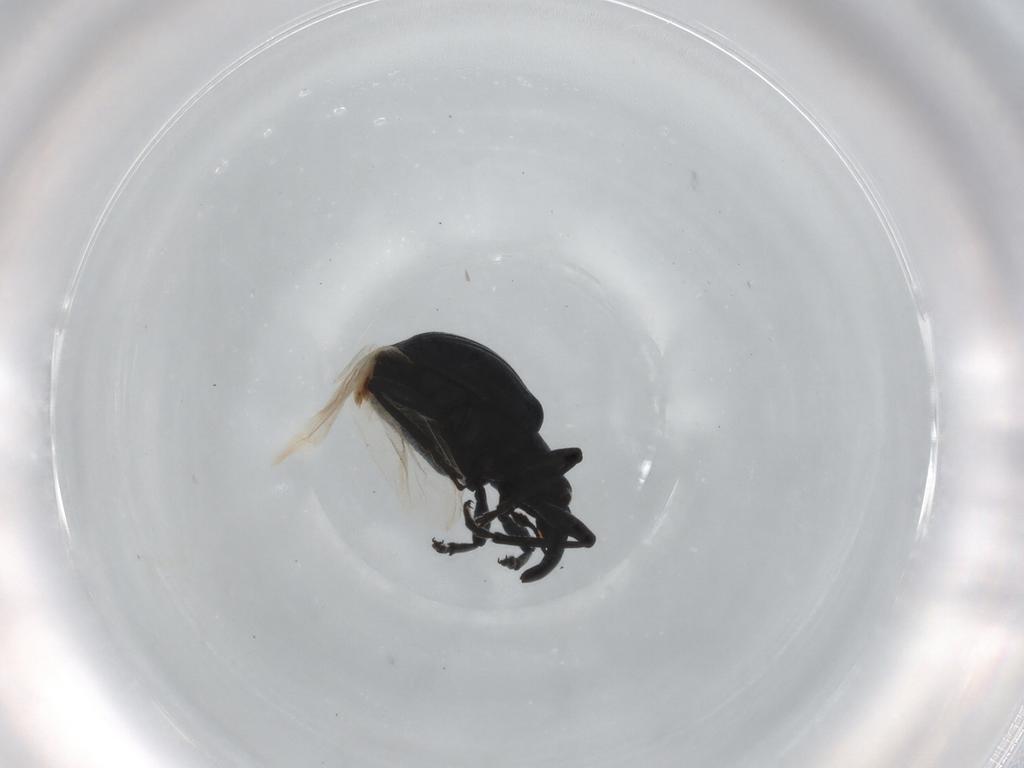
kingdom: Animalia
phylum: Arthropoda
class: Insecta
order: Coleoptera
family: Apionidae
